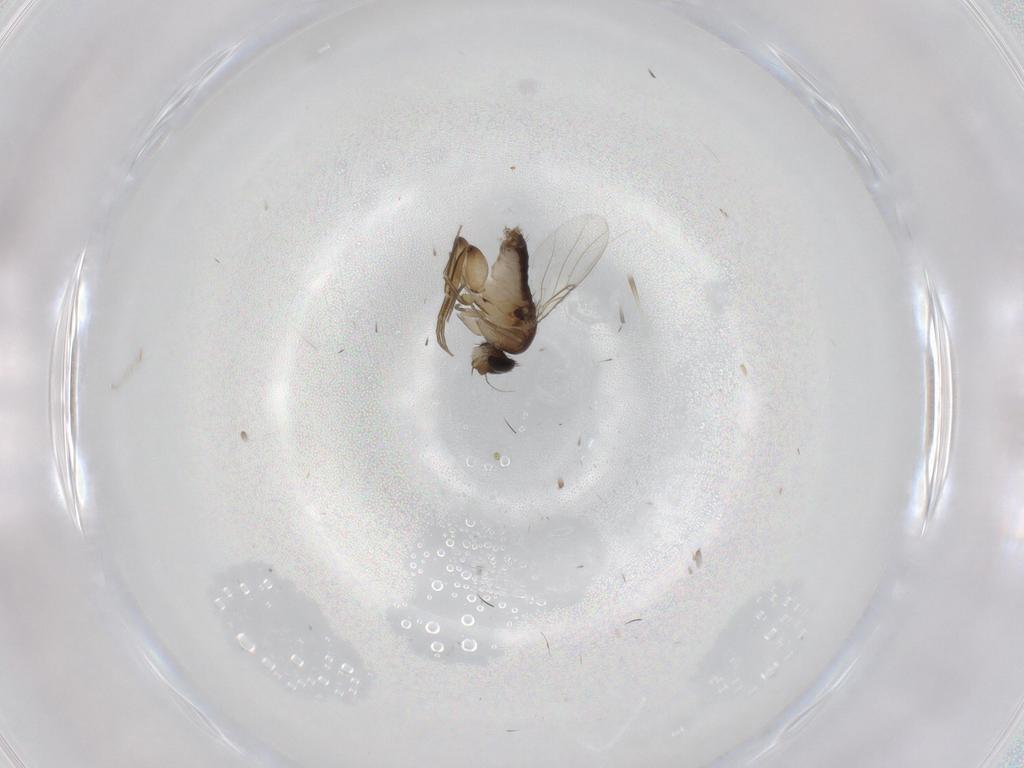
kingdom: Animalia
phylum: Arthropoda
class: Insecta
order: Diptera
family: Phoridae
